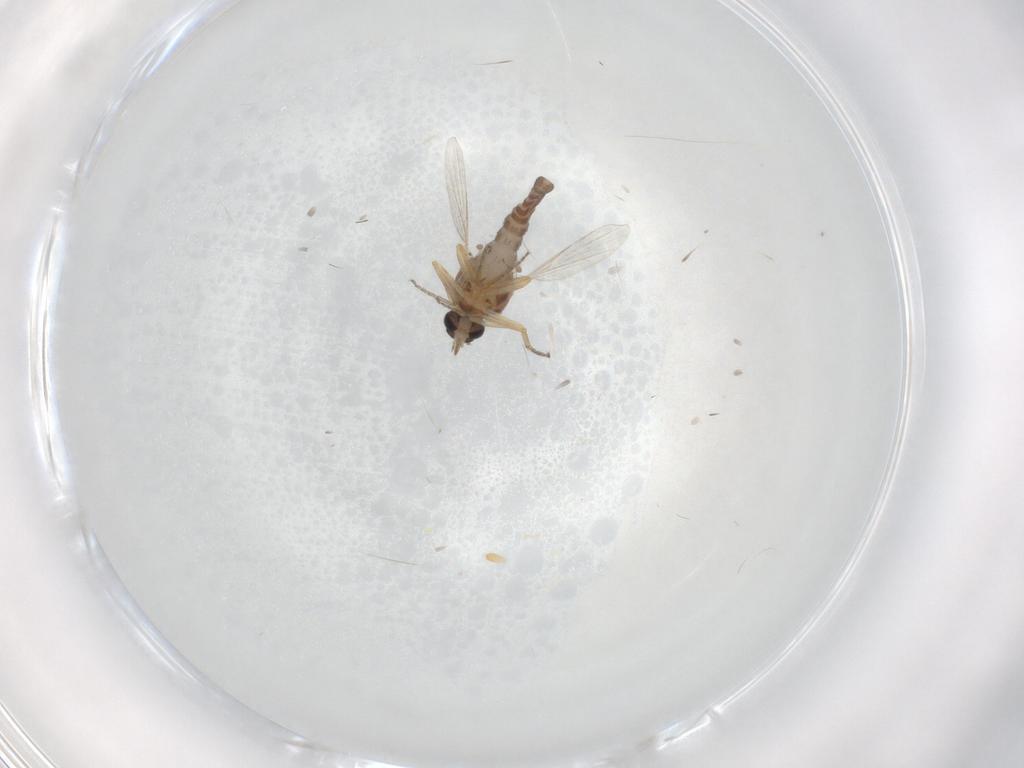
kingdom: Animalia
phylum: Arthropoda
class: Insecta
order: Diptera
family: Ceratopogonidae
